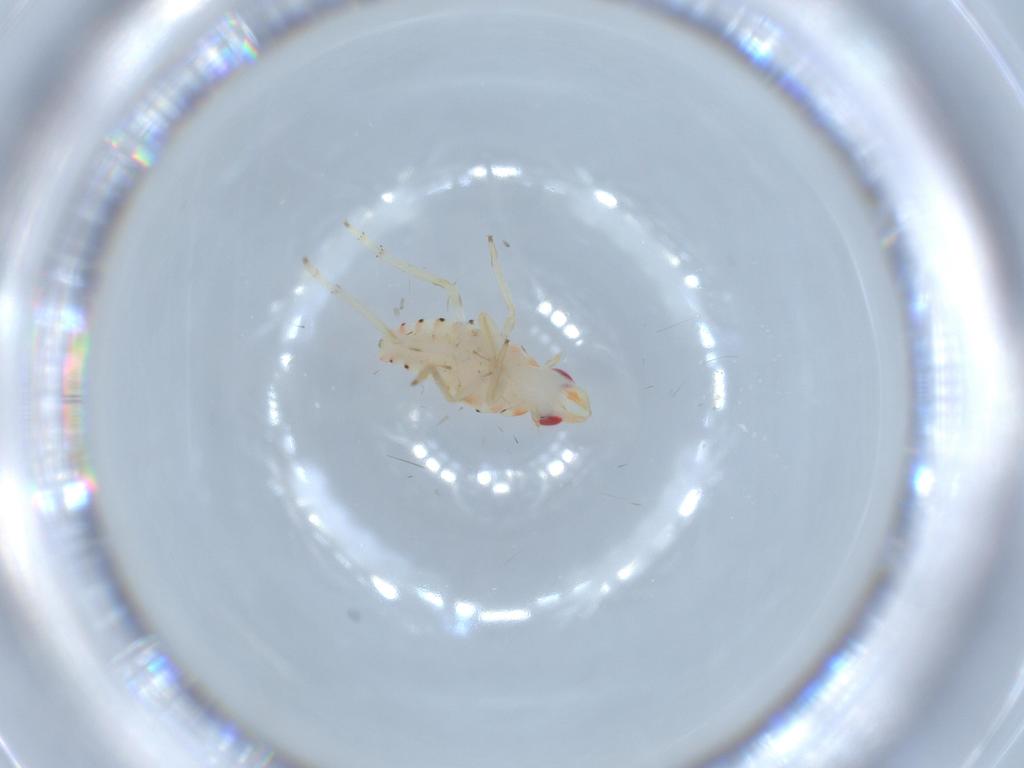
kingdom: Animalia
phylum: Arthropoda
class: Insecta
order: Hemiptera
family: Tropiduchidae
